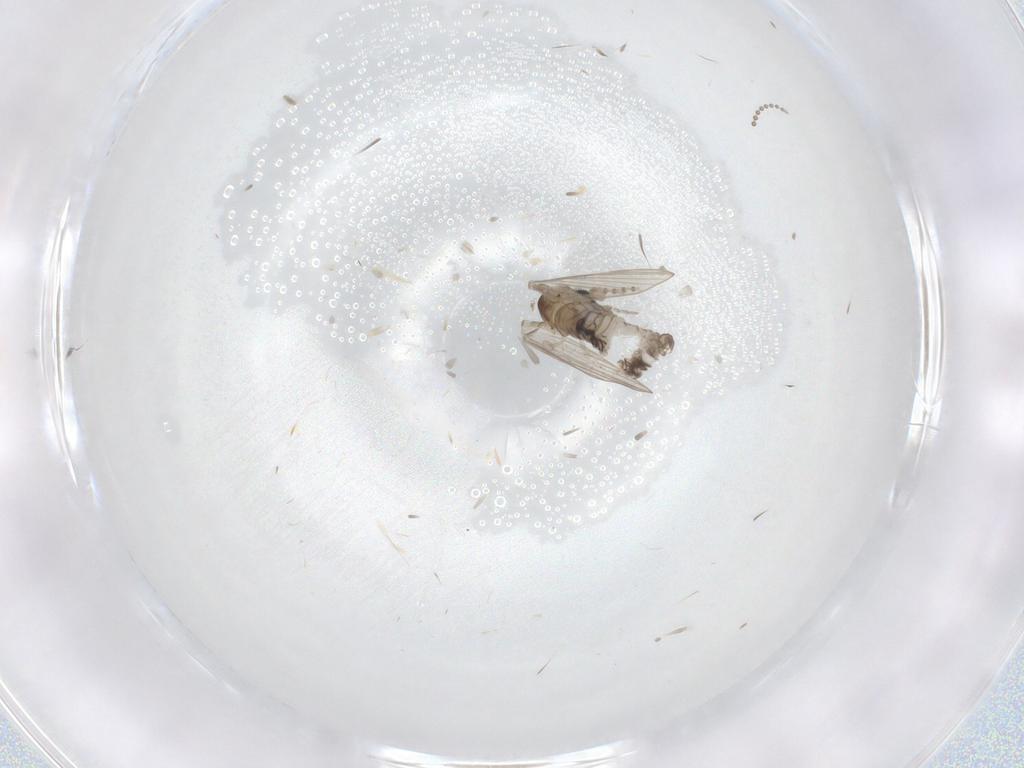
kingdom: Animalia
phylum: Arthropoda
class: Insecta
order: Diptera
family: Psychodidae
